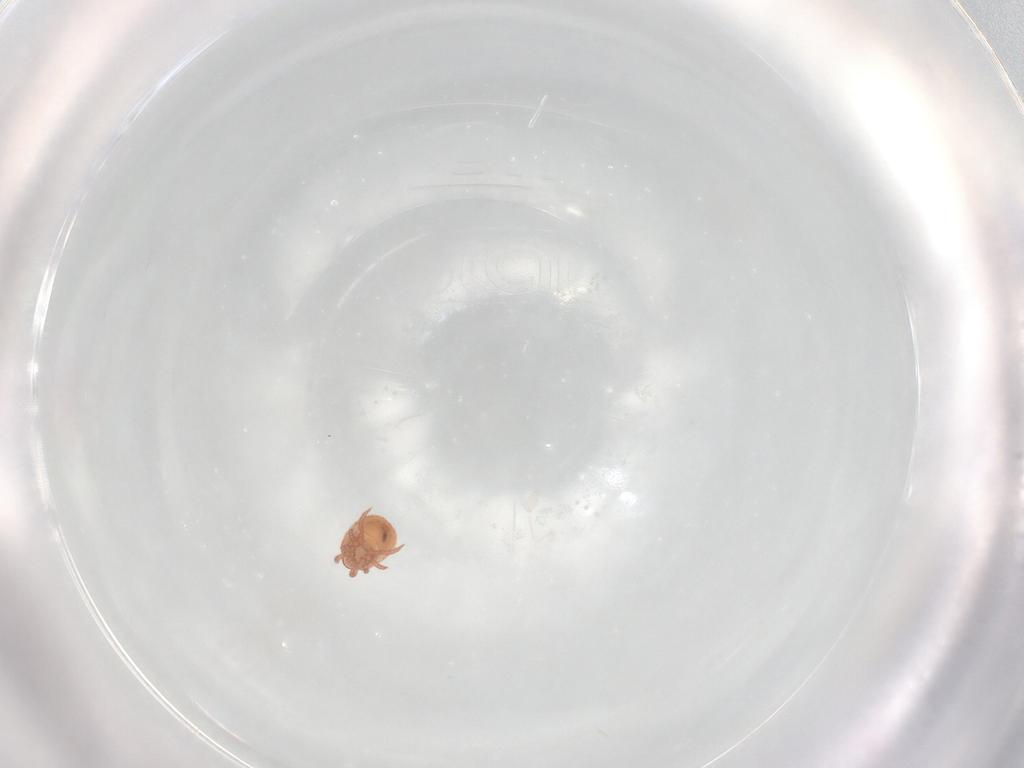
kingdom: Animalia
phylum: Arthropoda
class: Arachnida
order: Mesostigmata
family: Zerconidae
